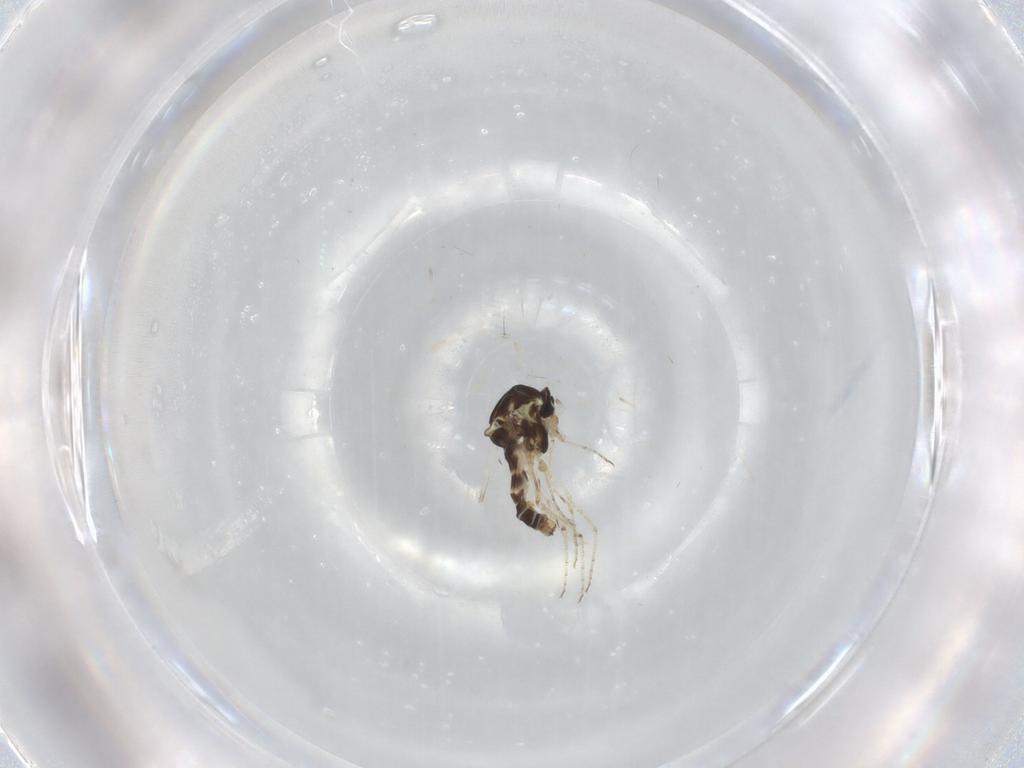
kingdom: Animalia
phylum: Arthropoda
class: Insecta
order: Diptera
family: Ceratopogonidae
